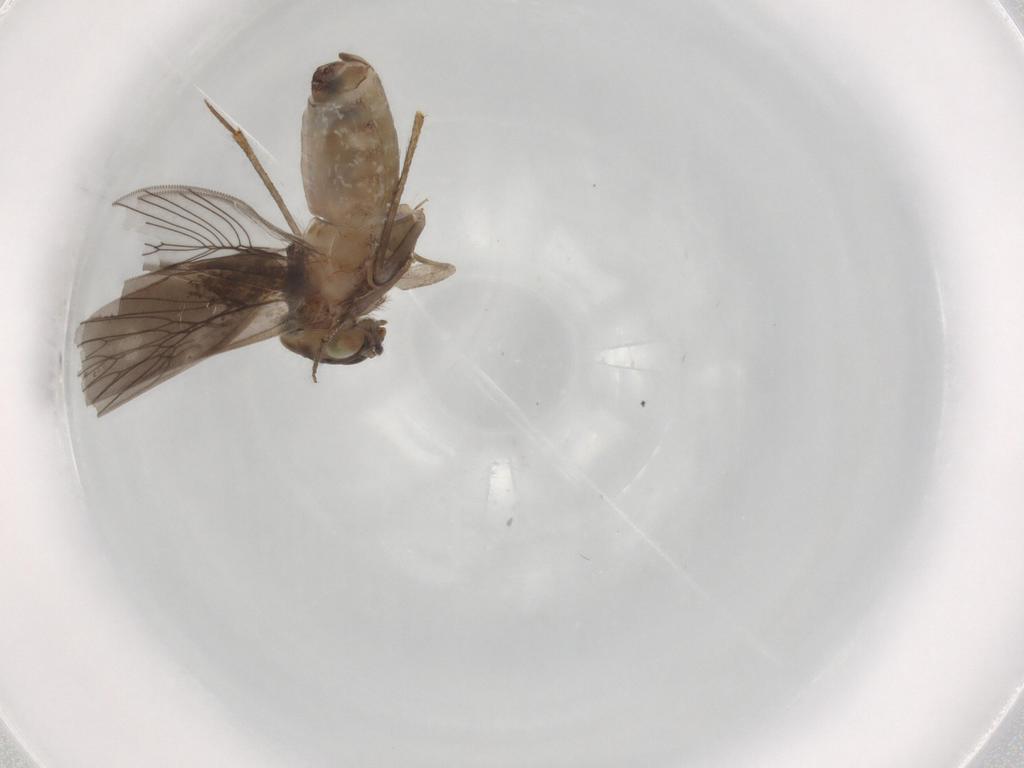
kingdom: Animalia
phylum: Arthropoda
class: Insecta
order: Psocodea
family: Lepidopsocidae
